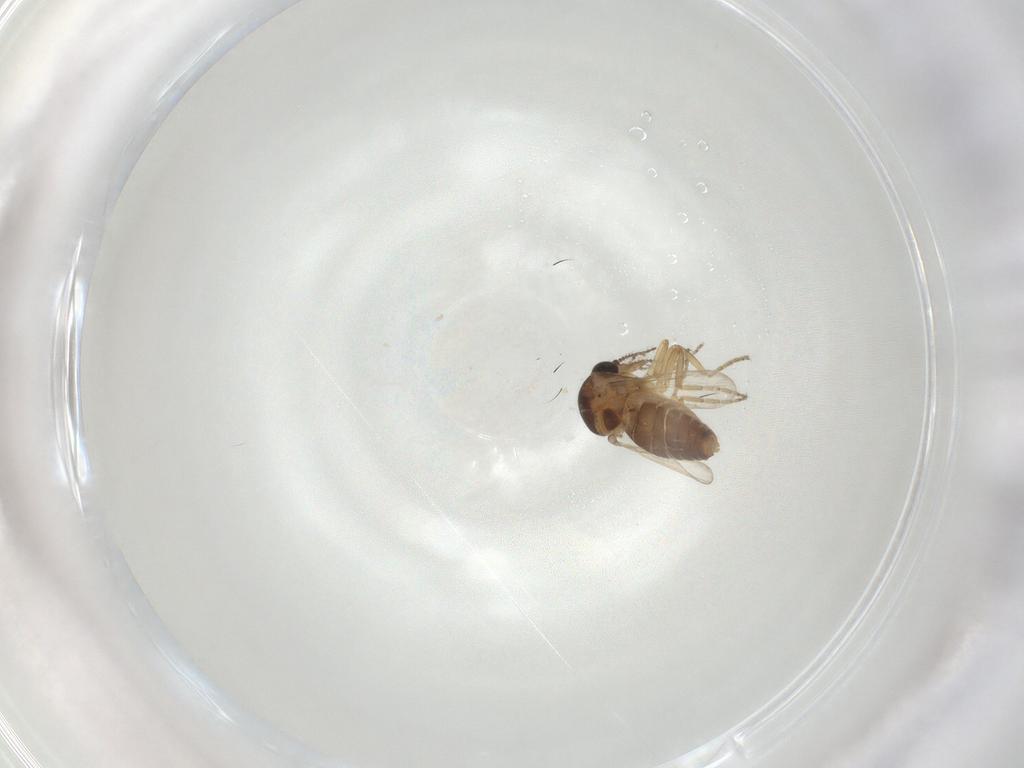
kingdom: Animalia
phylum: Arthropoda
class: Insecta
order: Diptera
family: Ceratopogonidae
